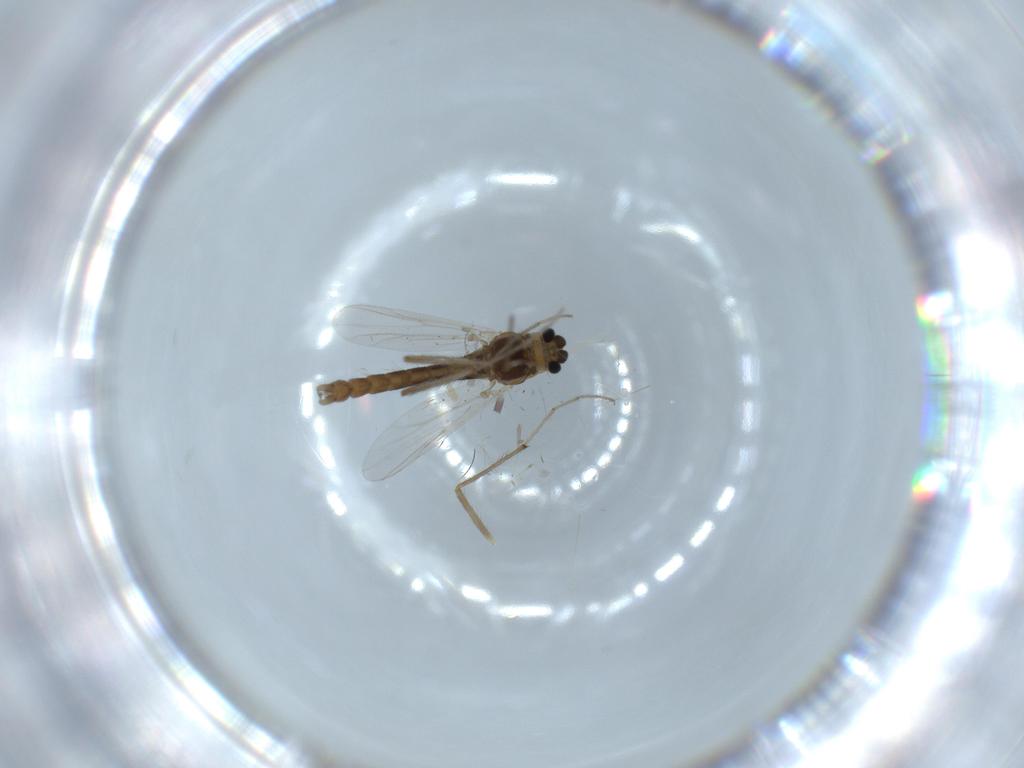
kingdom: Animalia
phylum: Arthropoda
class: Insecta
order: Diptera
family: Chironomidae
